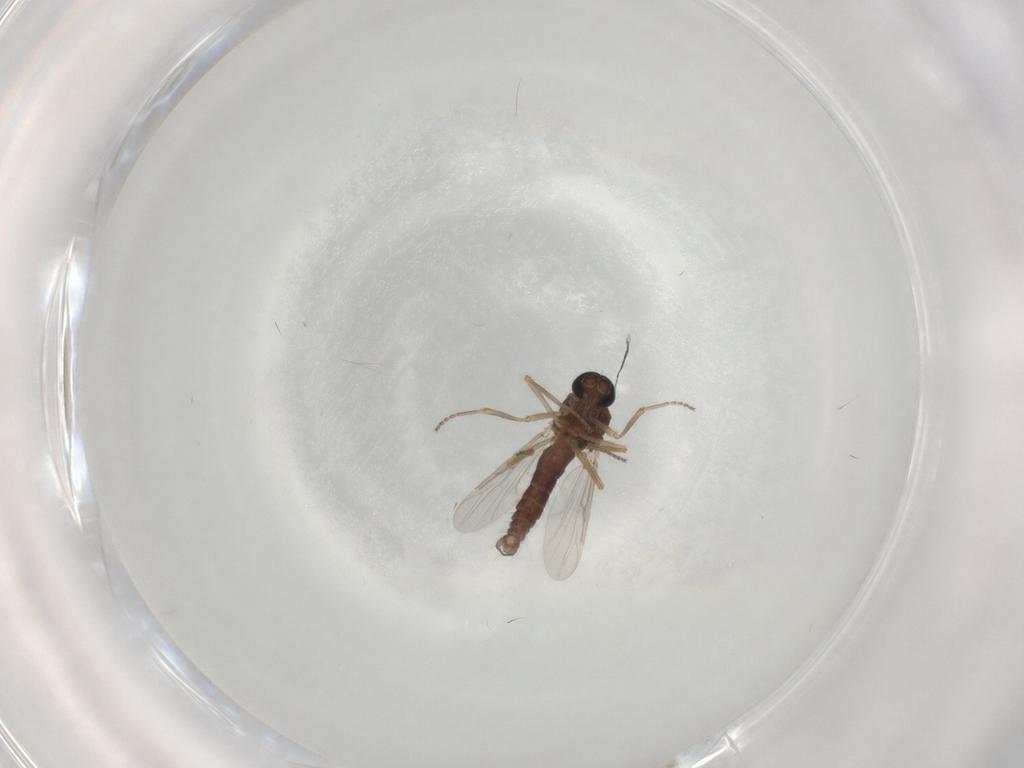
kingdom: Animalia
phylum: Arthropoda
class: Insecta
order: Diptera
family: Ceratopogonidae
